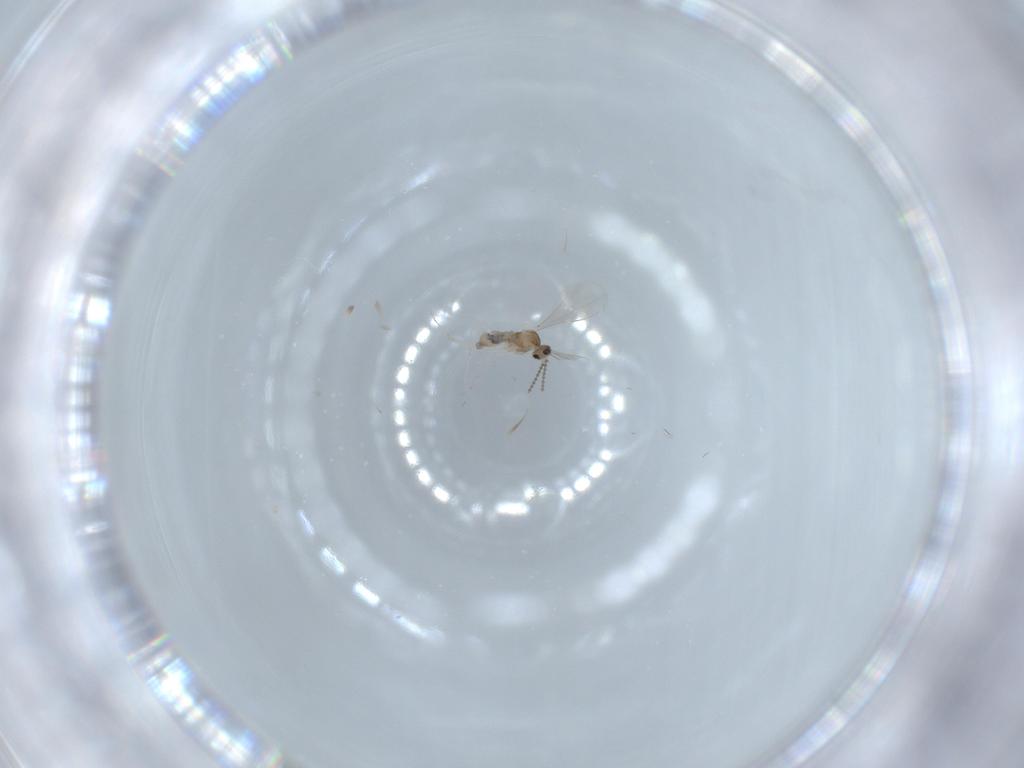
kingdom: Animalia
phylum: Arthropoda
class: Insecta
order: Diptera
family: Cecidomyiidae
